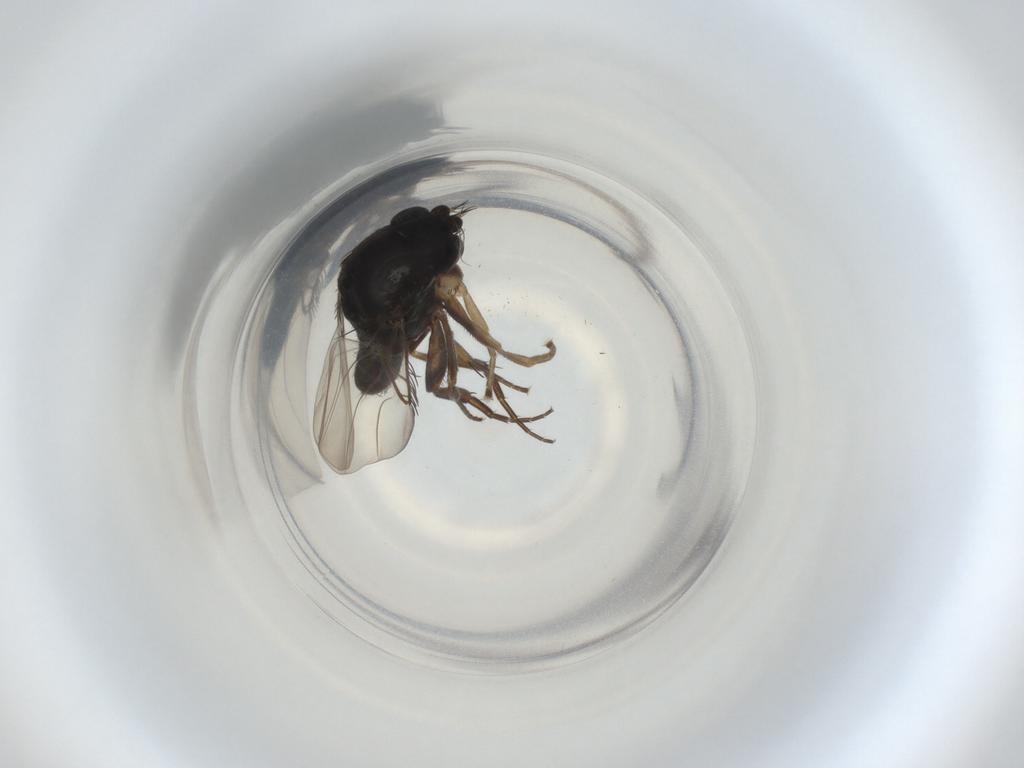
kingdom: Animalia
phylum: Arthropoda
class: Insecta
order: Diptera
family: Phoridae
